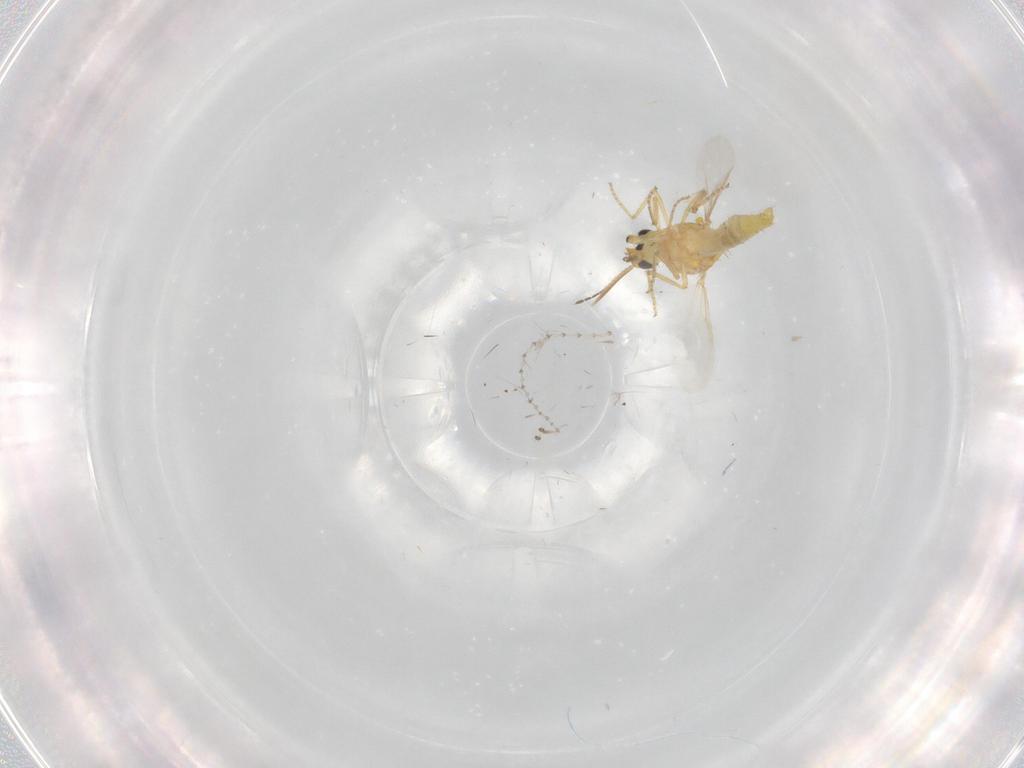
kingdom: Animalia
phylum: Arthropoda
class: Insecta
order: Diptera
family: Ceratopogonidae
